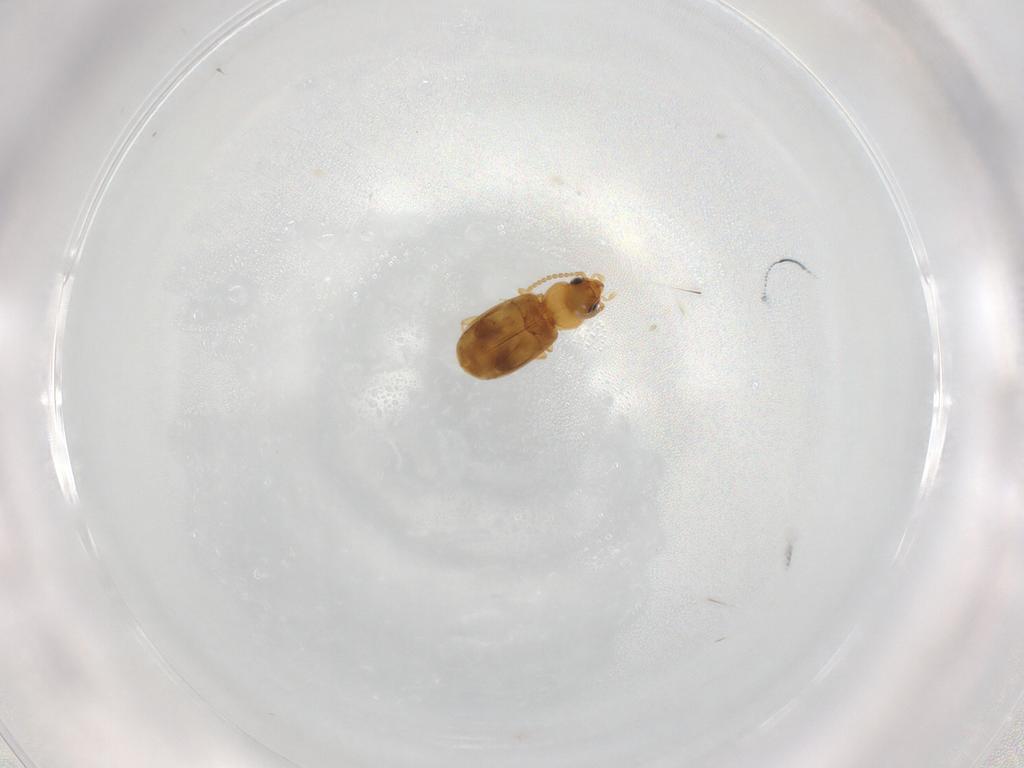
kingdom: Animalia
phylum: Arthropoda
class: Insecta
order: Coleoptera
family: Carabidae
